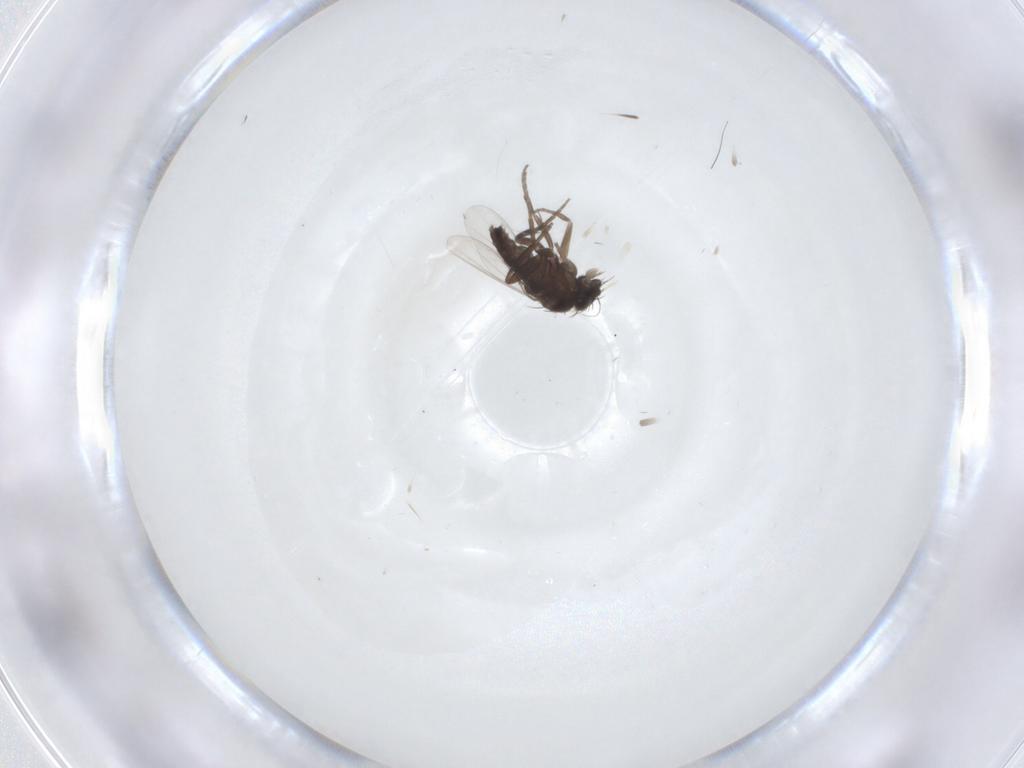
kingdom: Animalia
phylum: Arthropoda
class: Insecta
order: Diptera
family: Phoridae
